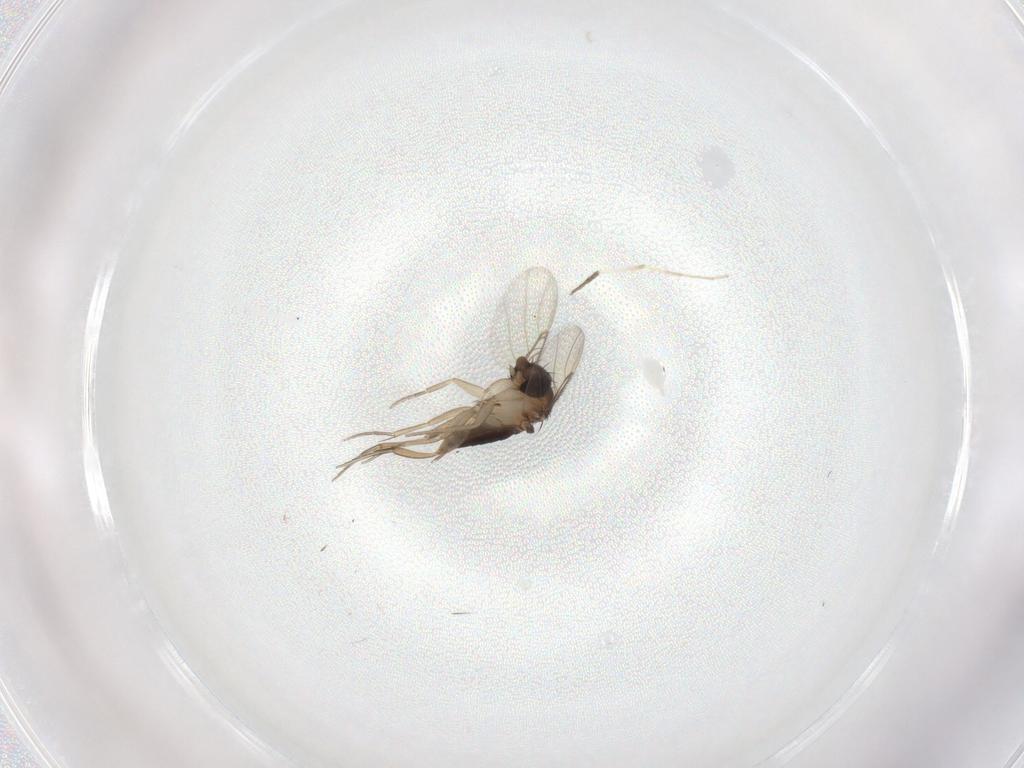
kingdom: Animalia
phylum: Arthropoda
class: Insecta
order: Diptera
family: Phoridae
